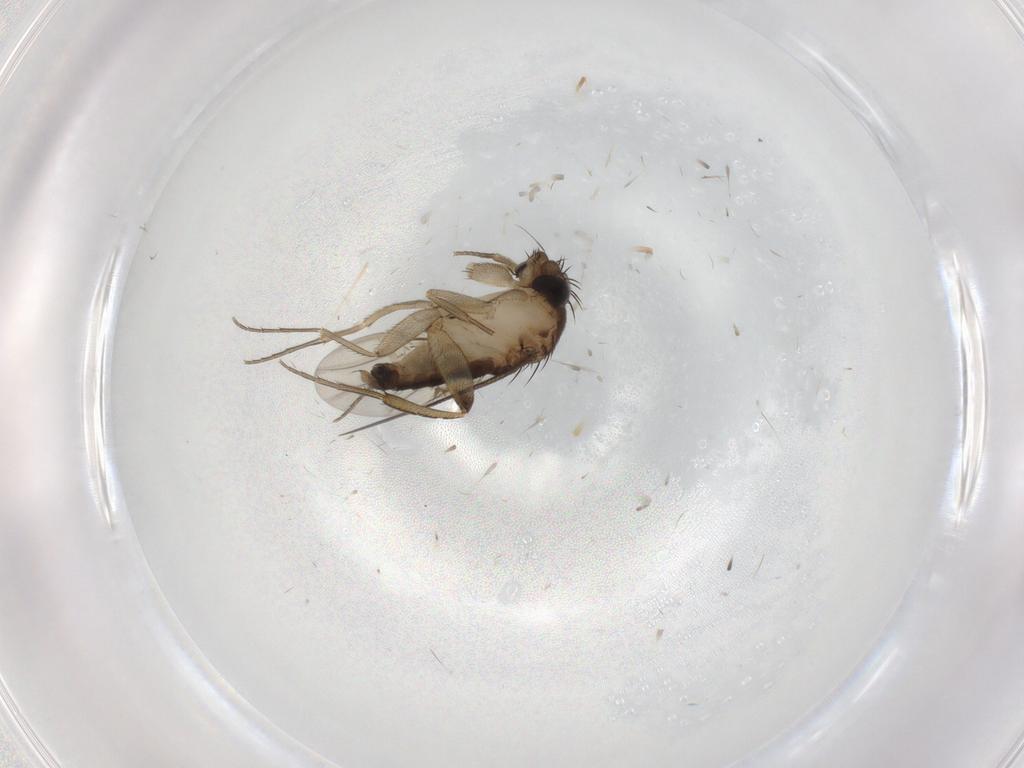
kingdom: Animalia
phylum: Arthropoda
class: Insecta
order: Diptera
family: Phoridae
